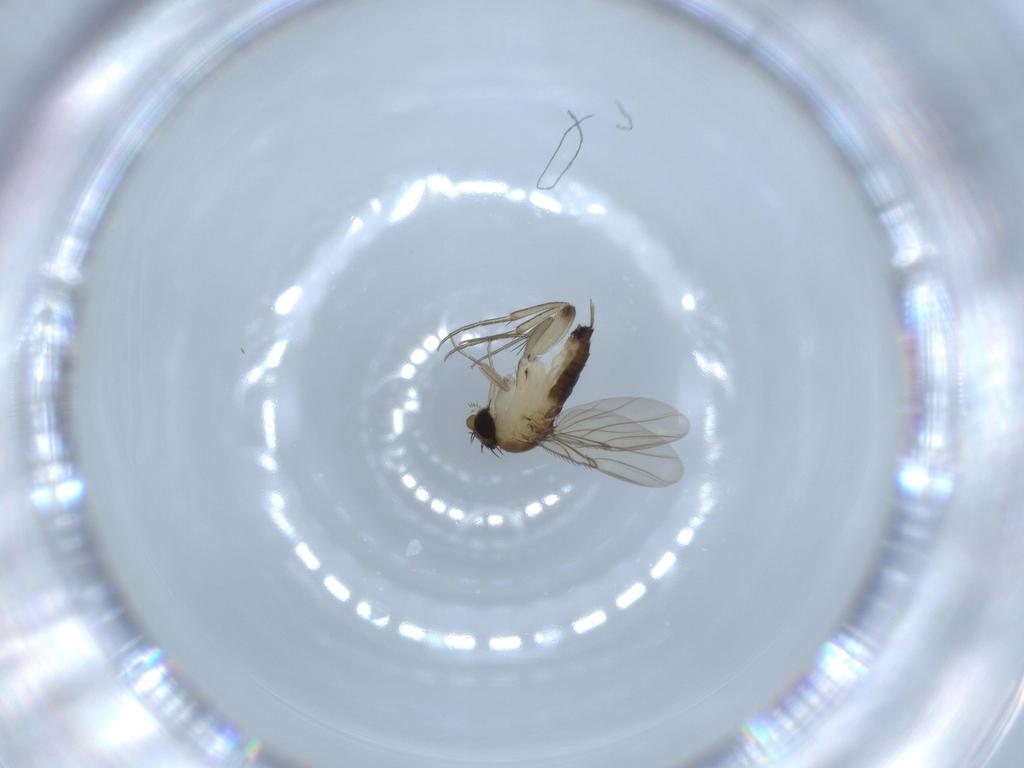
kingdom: Animalia
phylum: Arthropoda
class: Insecta
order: Diptera
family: Phoridae
